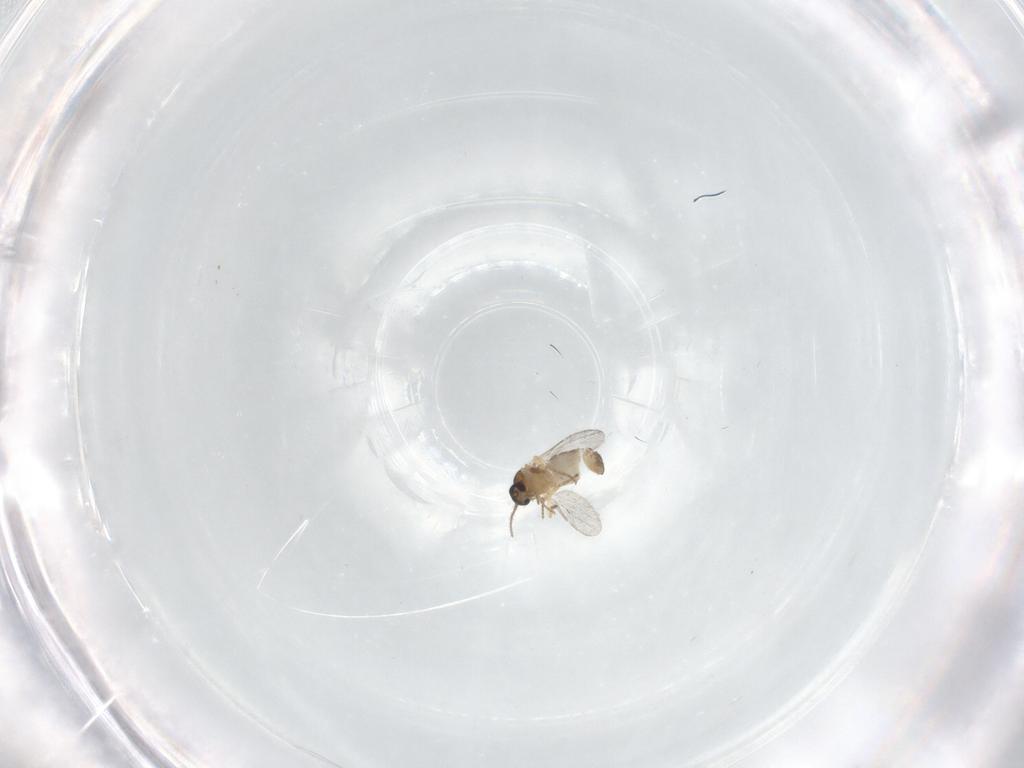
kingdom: Animalia
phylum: Arthropoda
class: Insecta
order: Diptera
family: Ceratopogonidae
